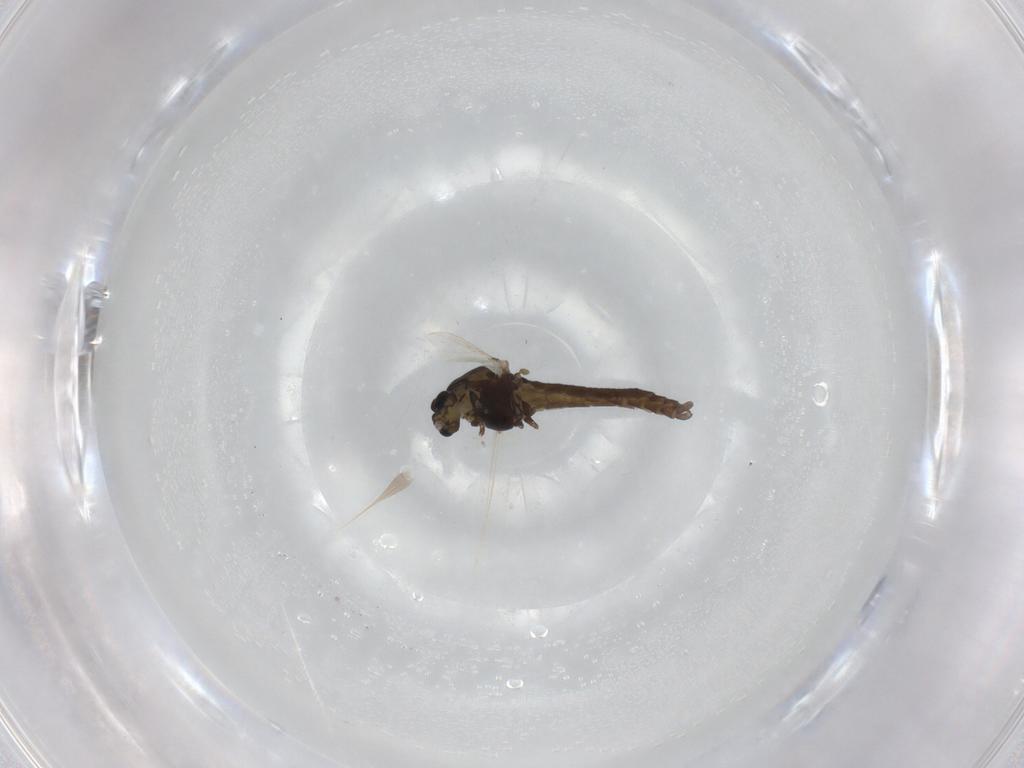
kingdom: Animalia
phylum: Arthropoda
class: Insecta
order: Diptera
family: Chironomidae
